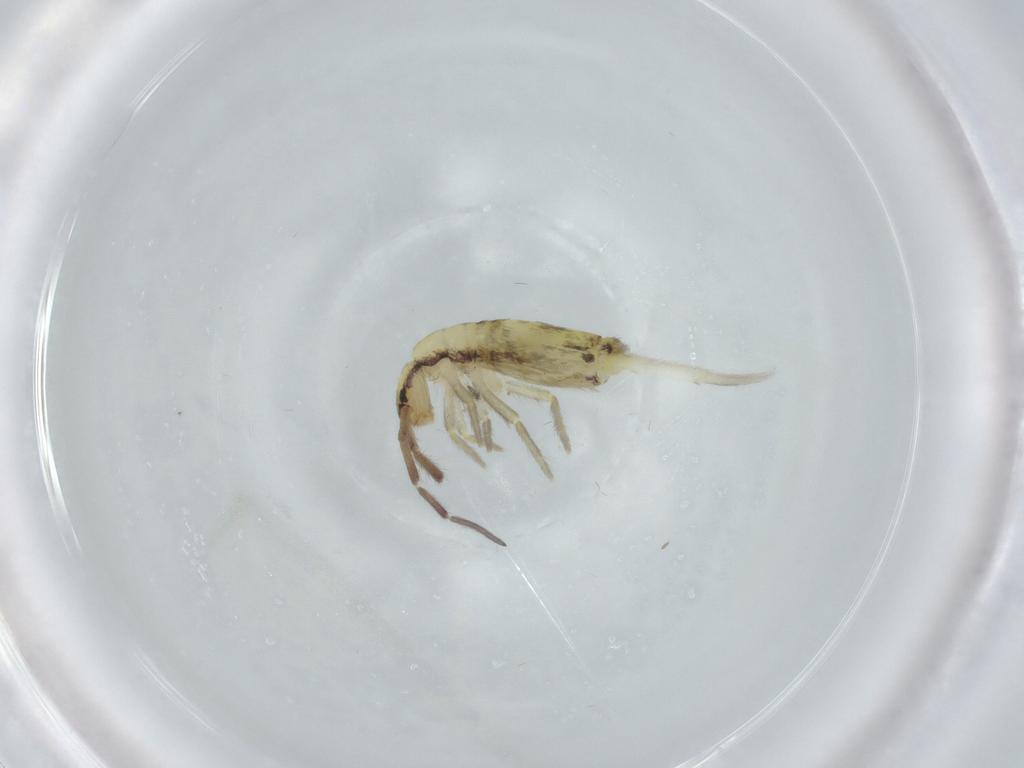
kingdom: Animalia
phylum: Arthropoda
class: Collembola
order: Entomobryomorpha
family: Entomobryidae
